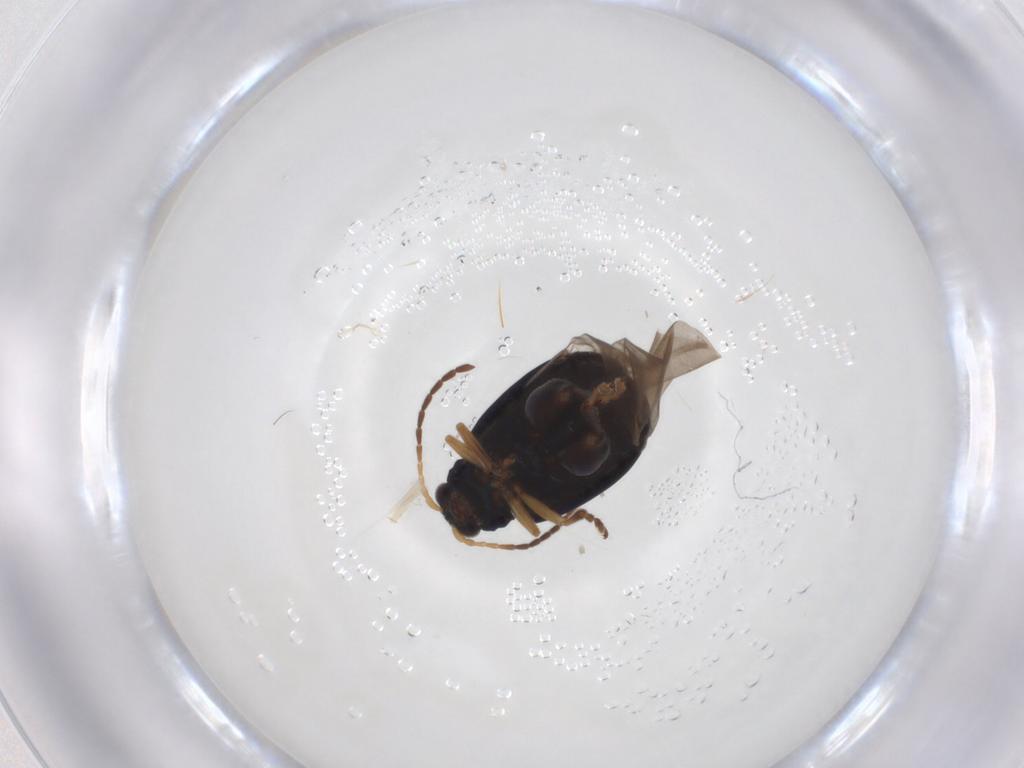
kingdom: Animalia
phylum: Arthropoda
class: Insecta
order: Coleoptera
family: Chrysomelidae
